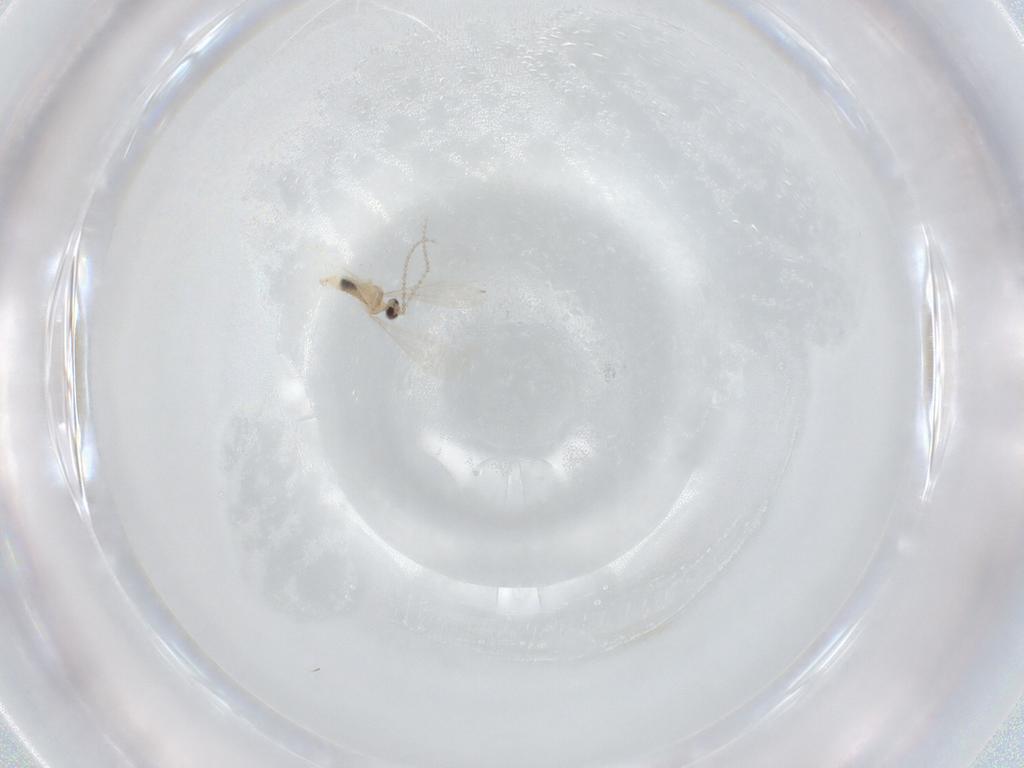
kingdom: Animalia
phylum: Arthropoda
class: Insecta
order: Diptera
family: Cecidomyiidae
